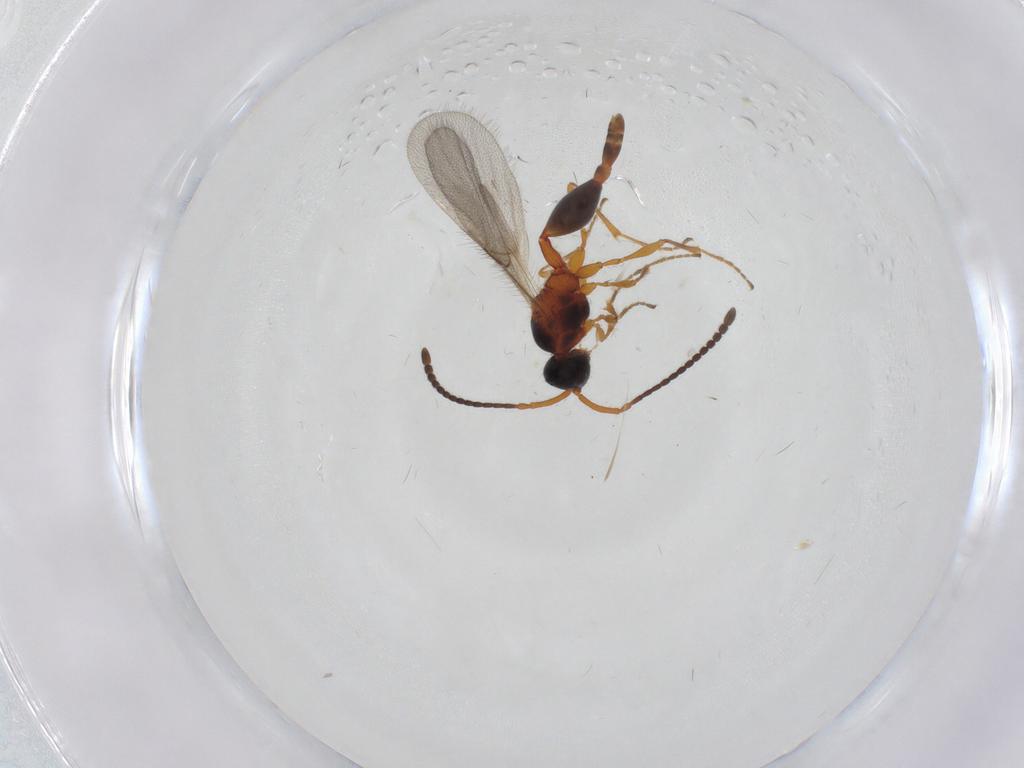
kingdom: Animalia
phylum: Arthropoda
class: Insecta
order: Hymenoptera
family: Diapriidae
